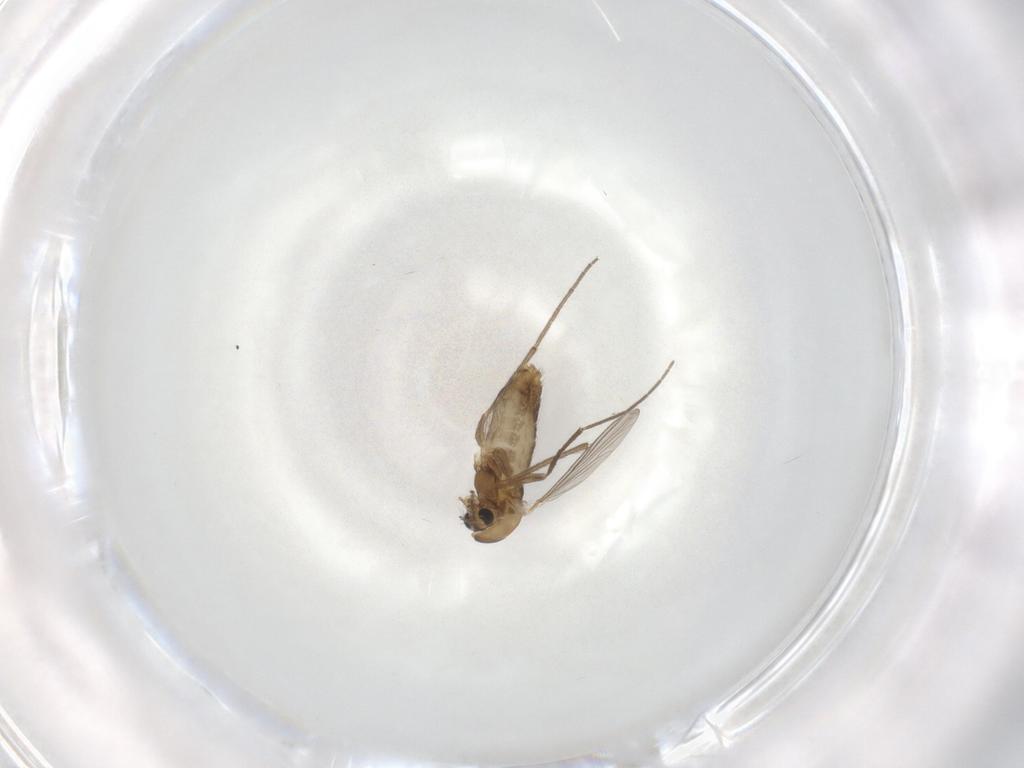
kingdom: Animalia
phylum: Arthropoda
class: Insecta
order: Diptera
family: Chironomidae
